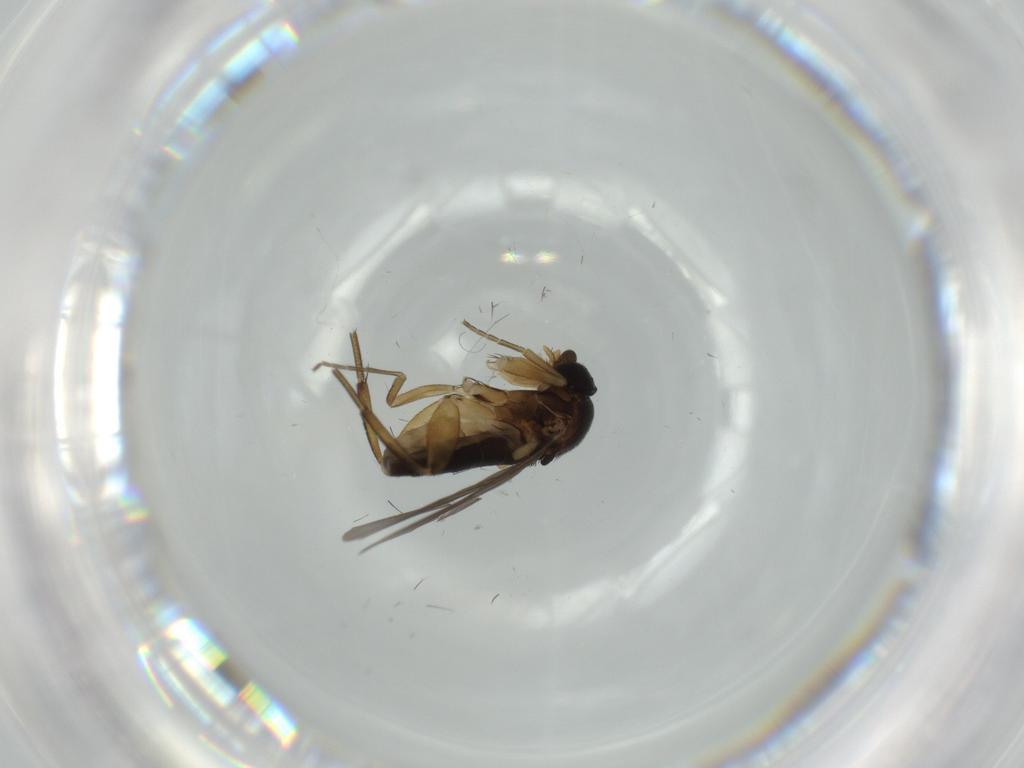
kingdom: Animalia
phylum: Arthropoda
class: Insecta
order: Diptera
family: Phoridae
